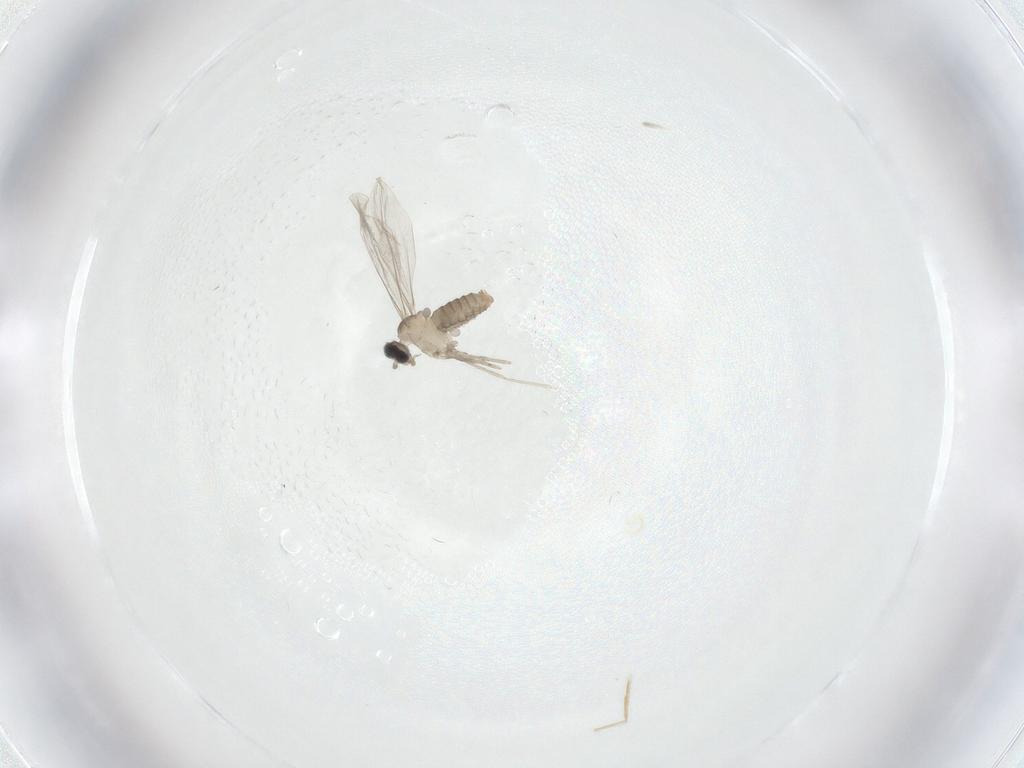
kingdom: Animalia
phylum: Arthropoda
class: Insecta
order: Diptera
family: Cecidomyiidae
